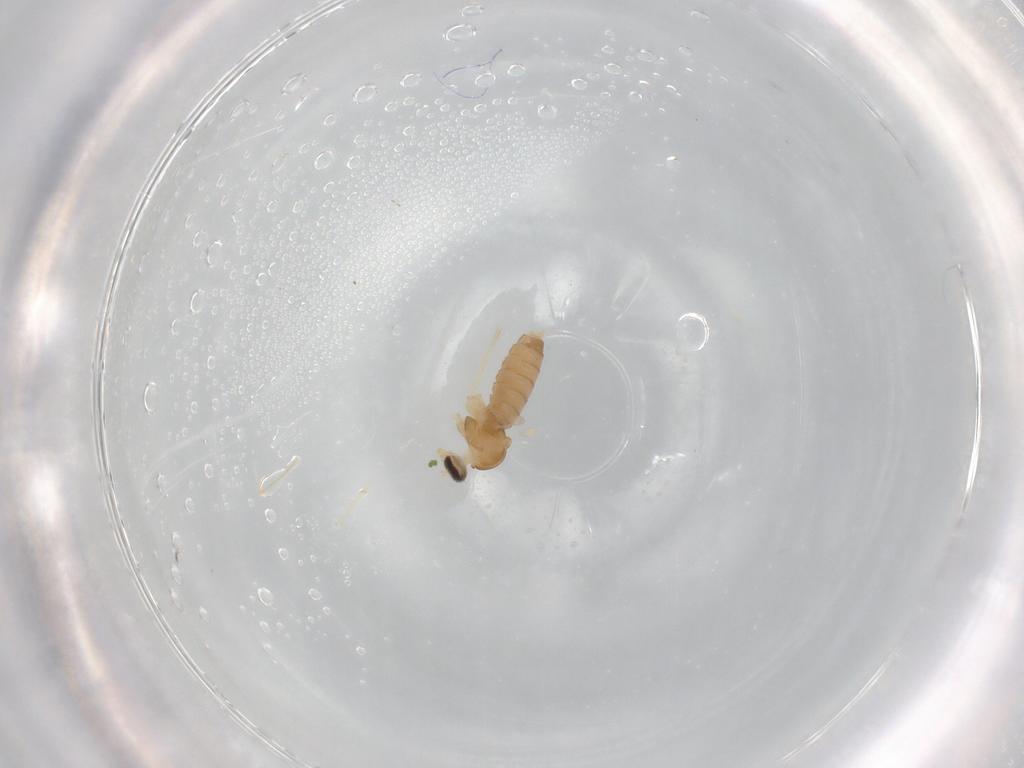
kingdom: Animalia
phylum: Arthropoda
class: Insecta
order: Diptera
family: Cecidomyiidae
